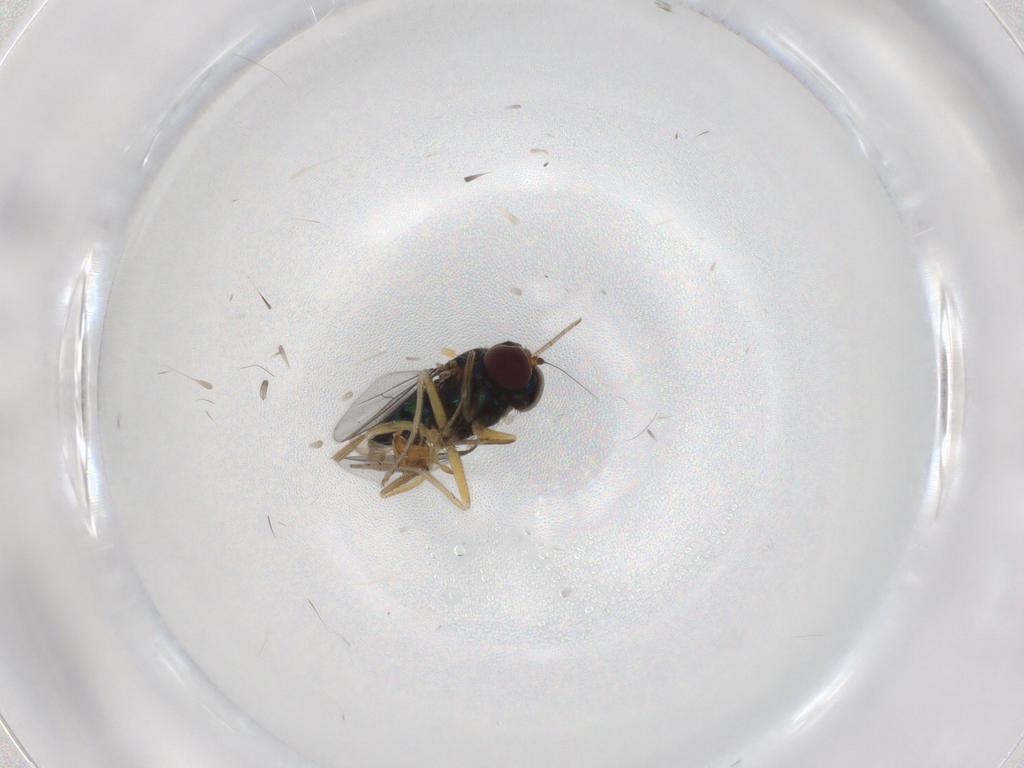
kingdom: Animalia
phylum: Arthropoda
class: Insecta
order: Diptera
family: Dolichopodidae
